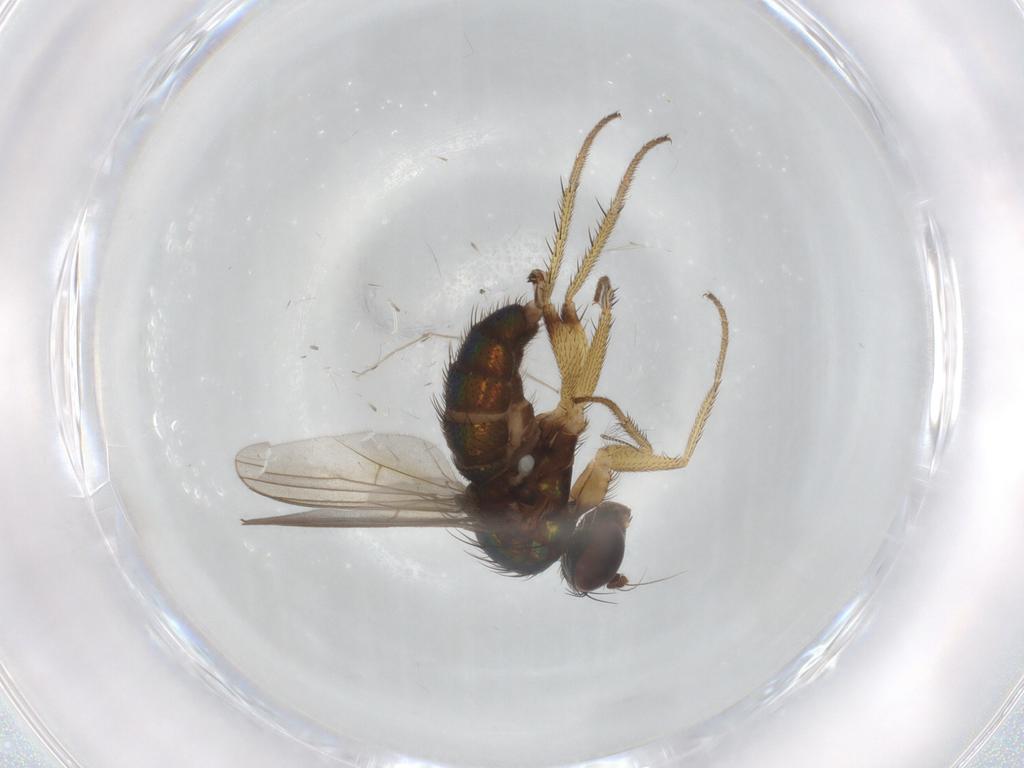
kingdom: Animalia
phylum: Arthropoda
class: Insecta
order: Diptera
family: Dolichopodidae
